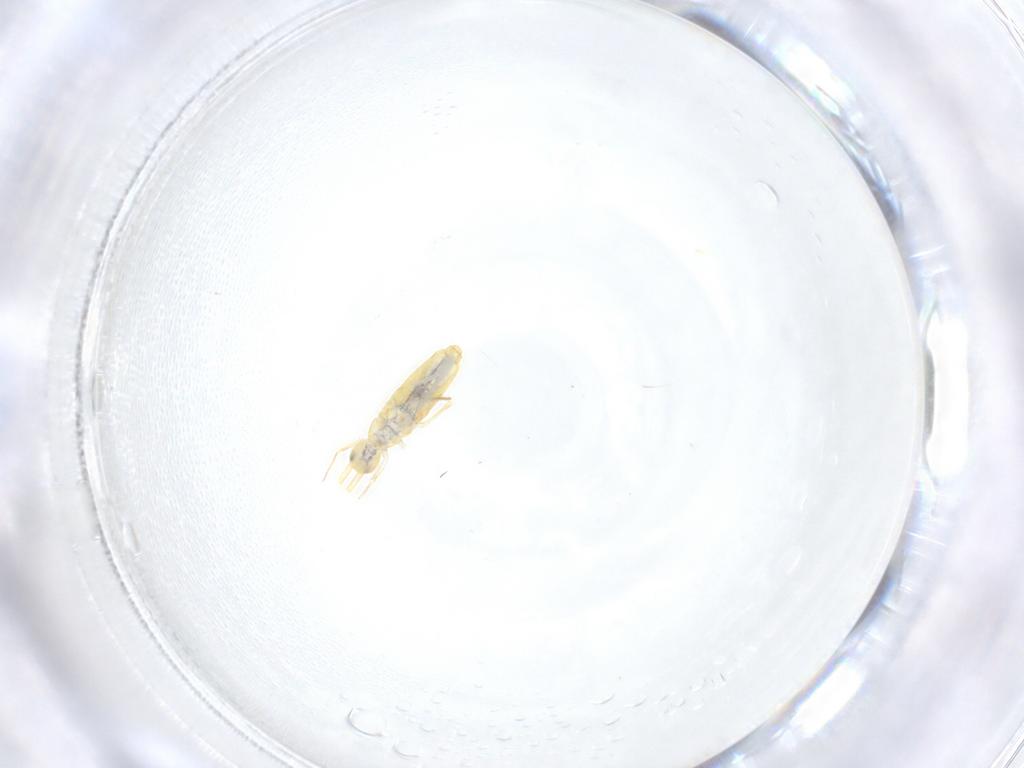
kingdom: Animalia
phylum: Arthropoda
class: Collembola
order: Entomobryomorpha
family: Paronellidae
